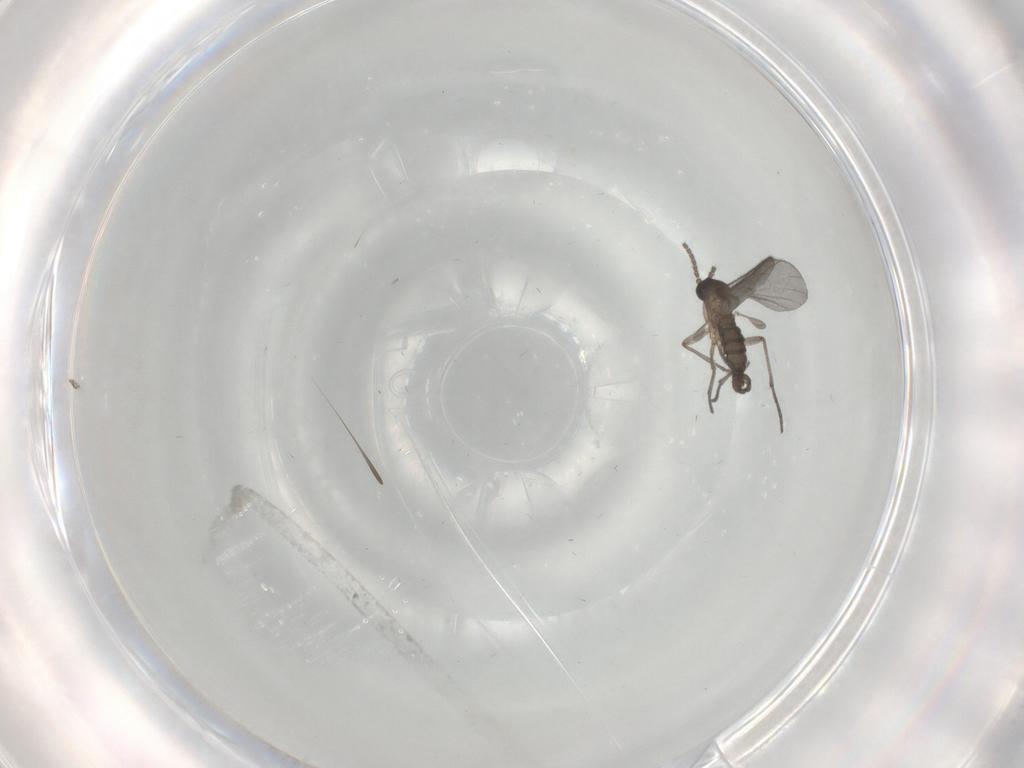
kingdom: Animalia
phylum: Arthropoda
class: Insecta
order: Diptera
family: Sciaridae
